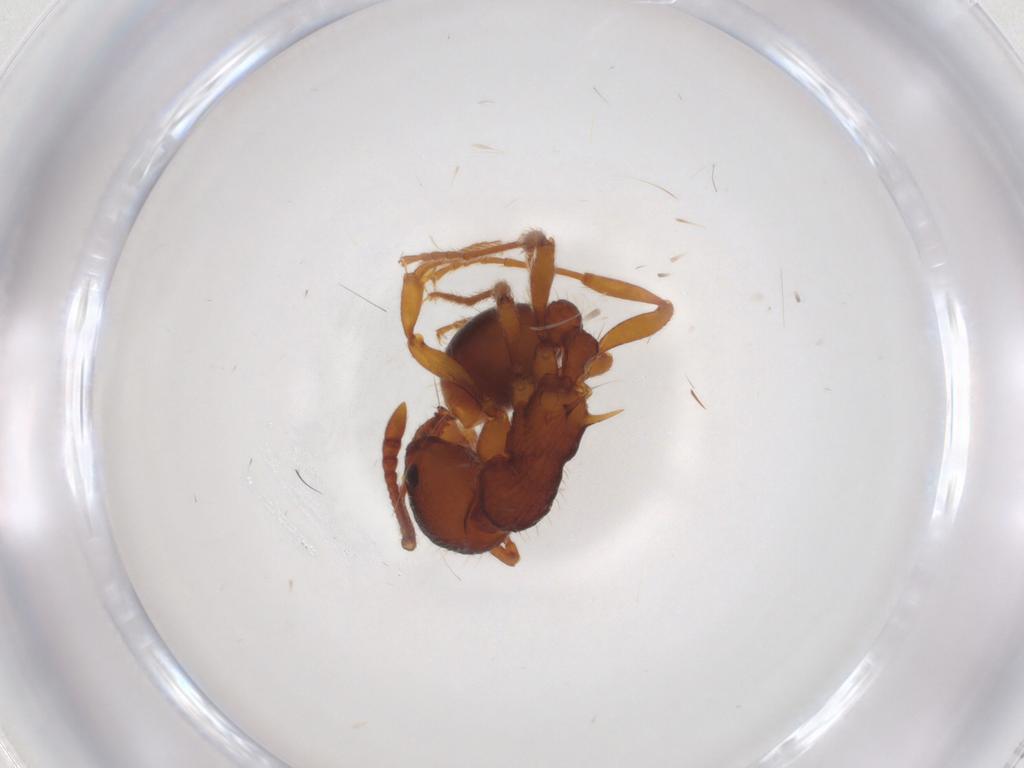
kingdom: Animalia
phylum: Arthropoda
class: Insecta
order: Hymenoptera
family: Formicidae
